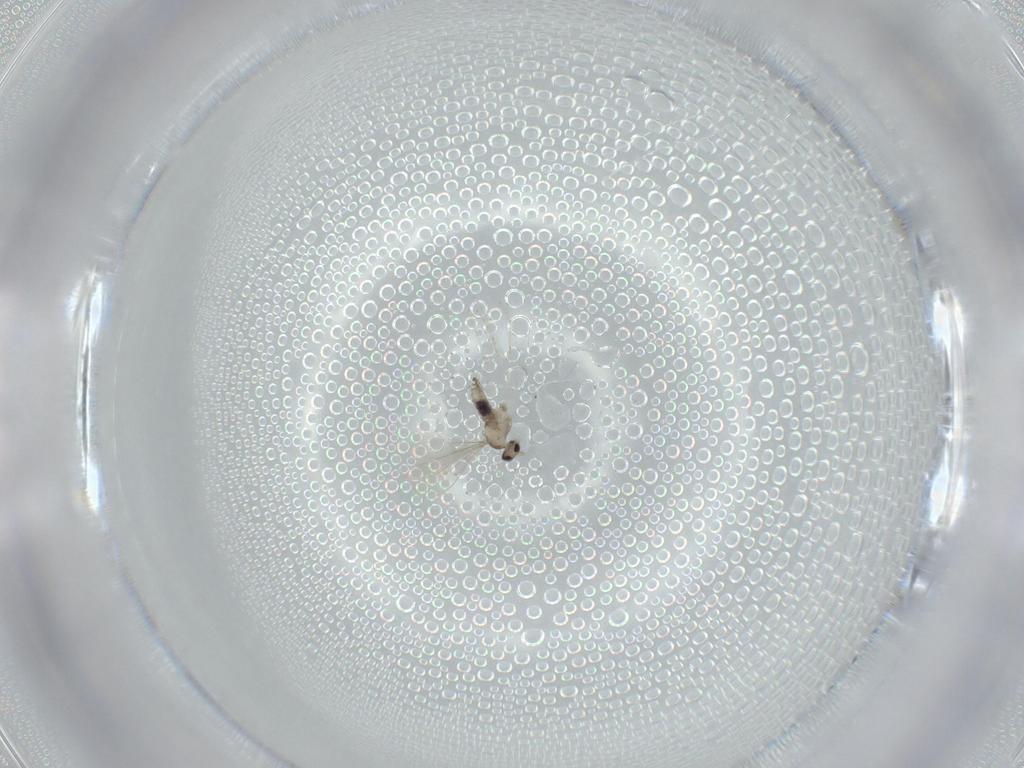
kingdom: Animalia
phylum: Arthropoda
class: Insecta
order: Diptera
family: Cecidomyiidae
